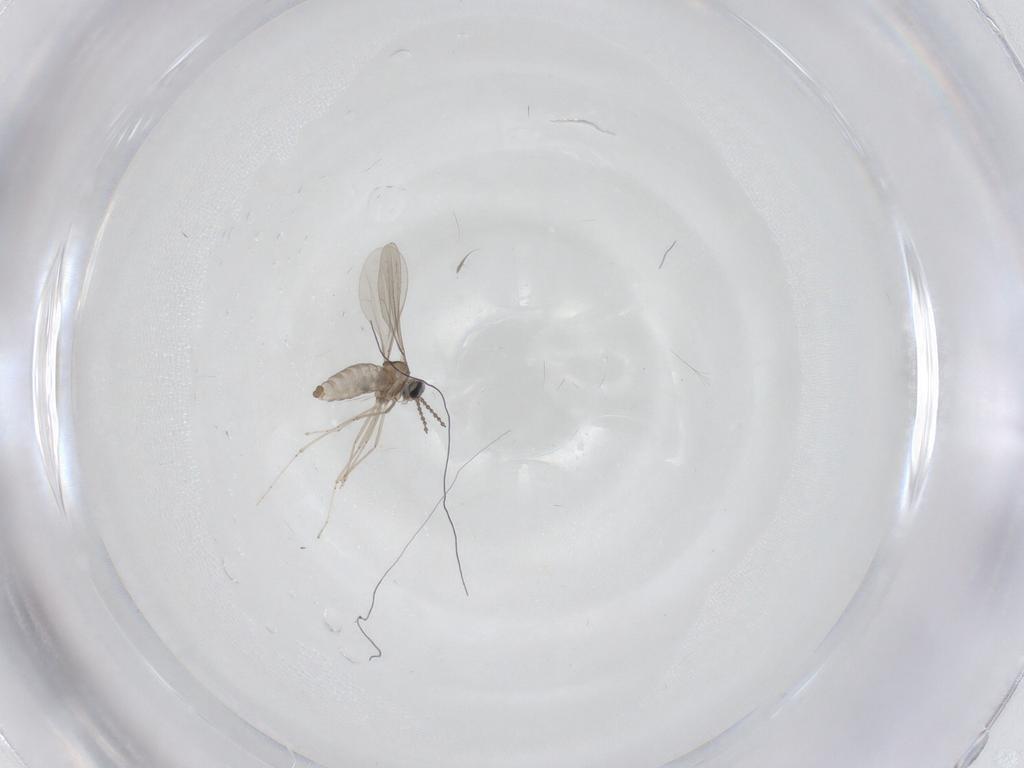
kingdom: Animalia
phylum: Arthropoda
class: Insecta
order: Diptera
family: Cecidomyiidae
